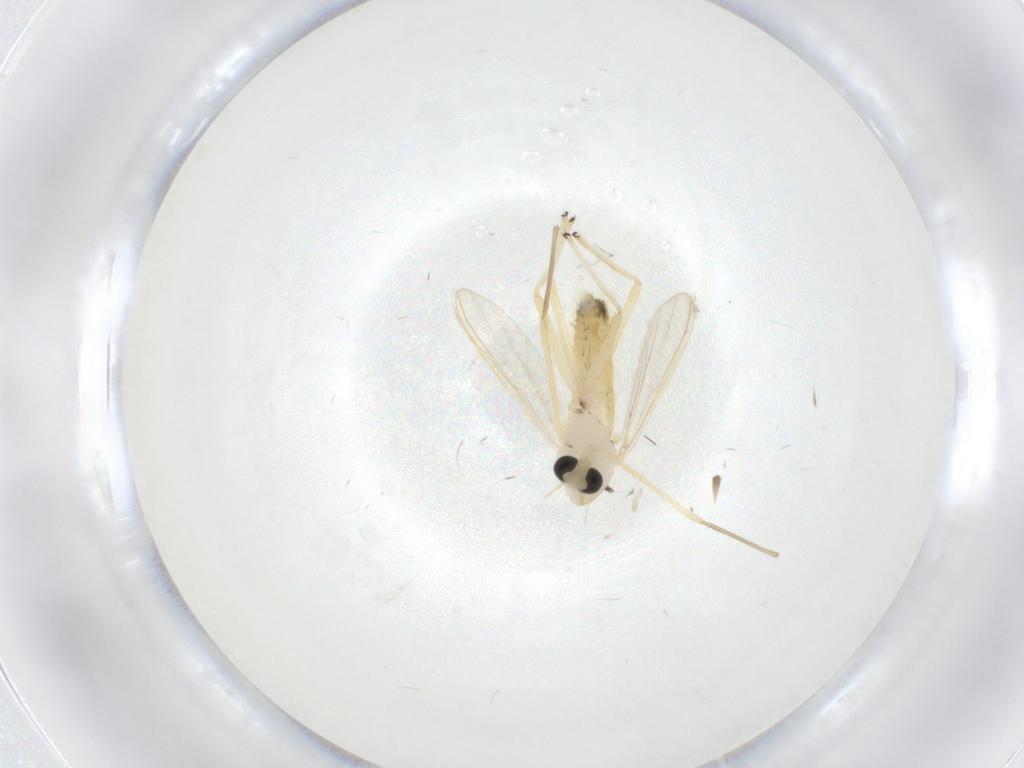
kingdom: Animalia
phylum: Arthropoda
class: Insecta
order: Diptera
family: Chironomidae
